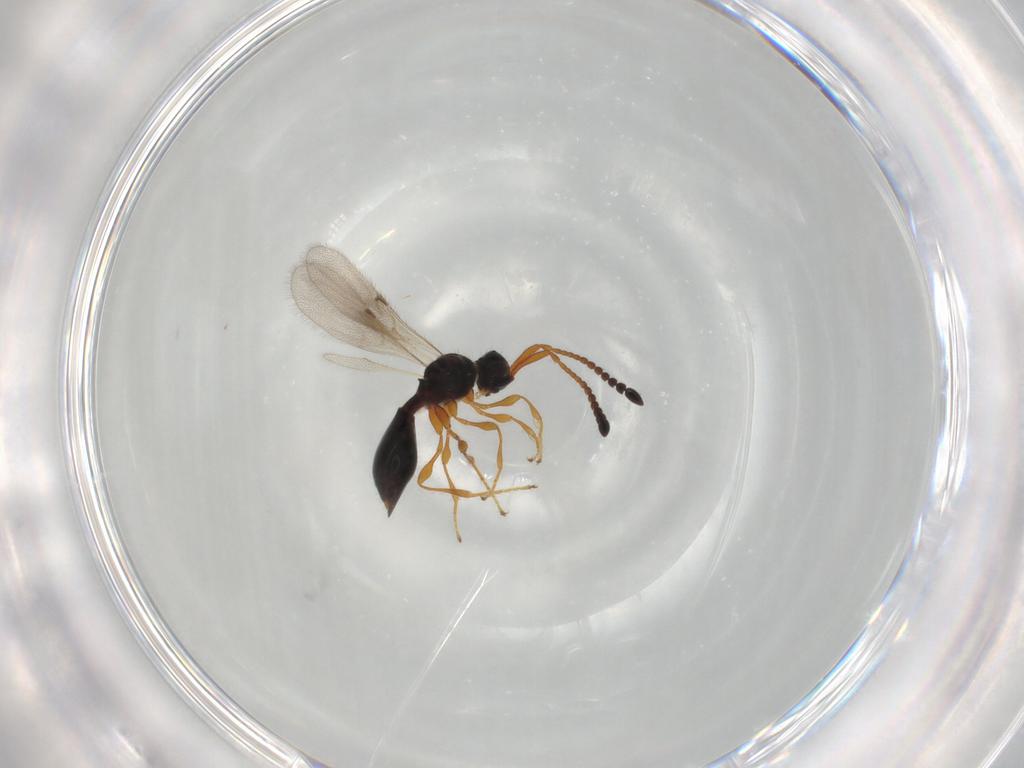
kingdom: Animalia
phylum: Arthropoda
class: Insecta
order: Hymenoptera
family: Diapriidae
